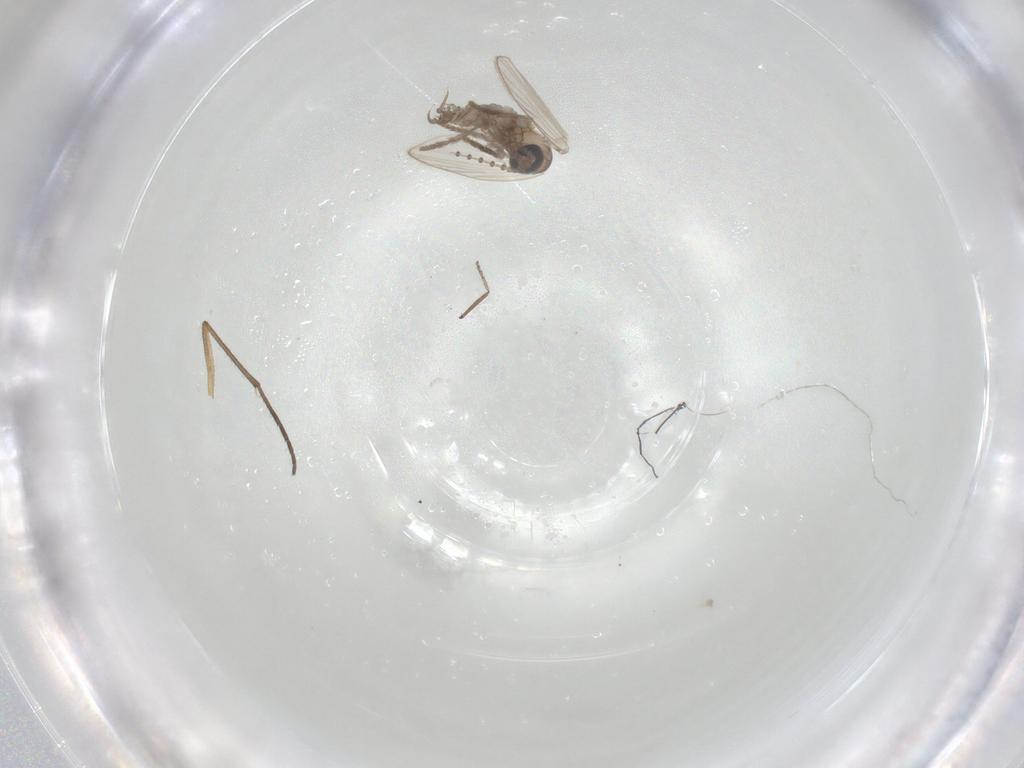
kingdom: Animalia
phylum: Arthropoda
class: Insecta
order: Diptera
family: Psychodidae
